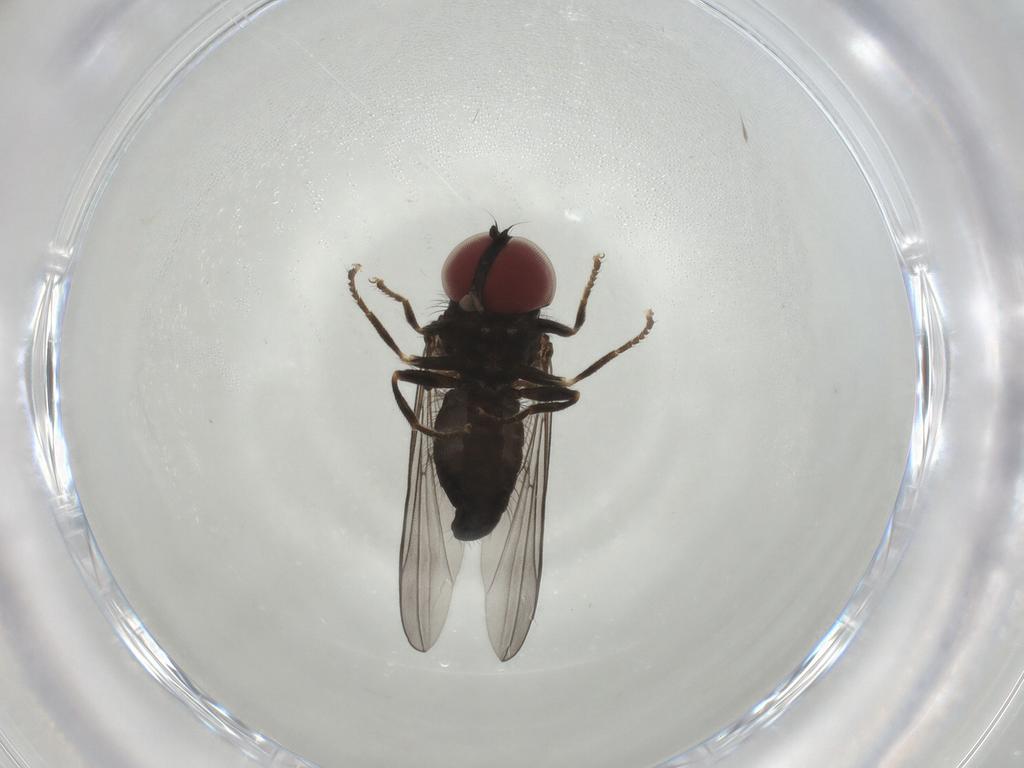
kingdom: Animalia
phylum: Arthropoda
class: Insecta
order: Diptera
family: Pipunculidae
